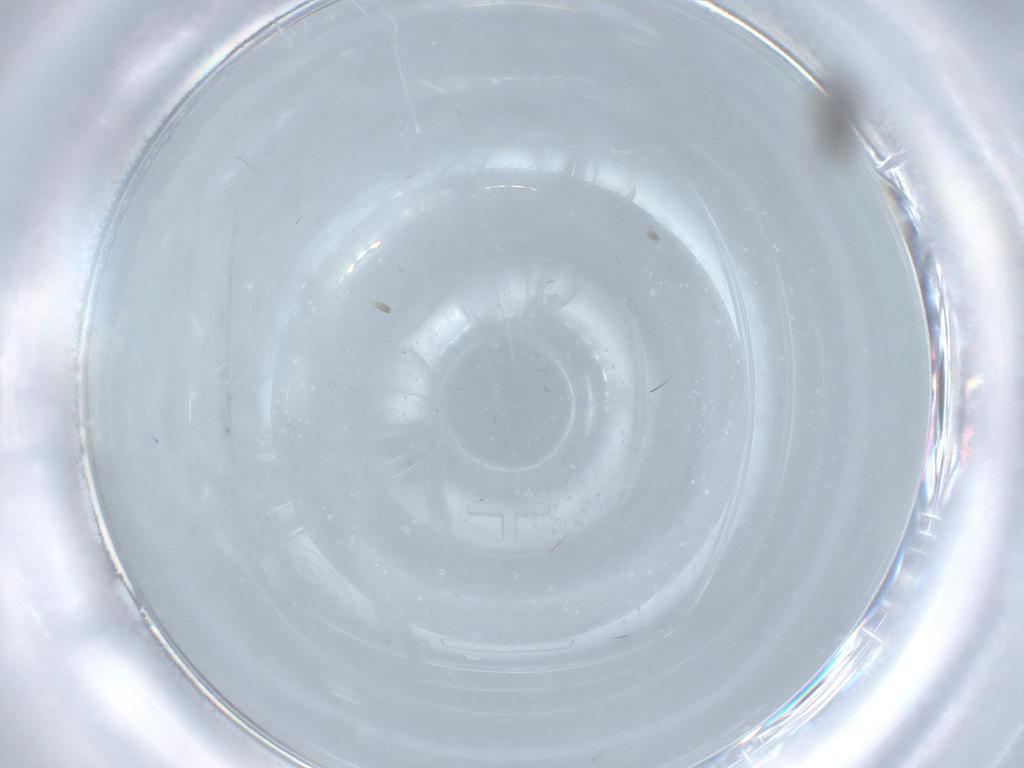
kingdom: Animalia
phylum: Arthropoda
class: Insecta
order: Diptera
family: Cecidomyiidae
